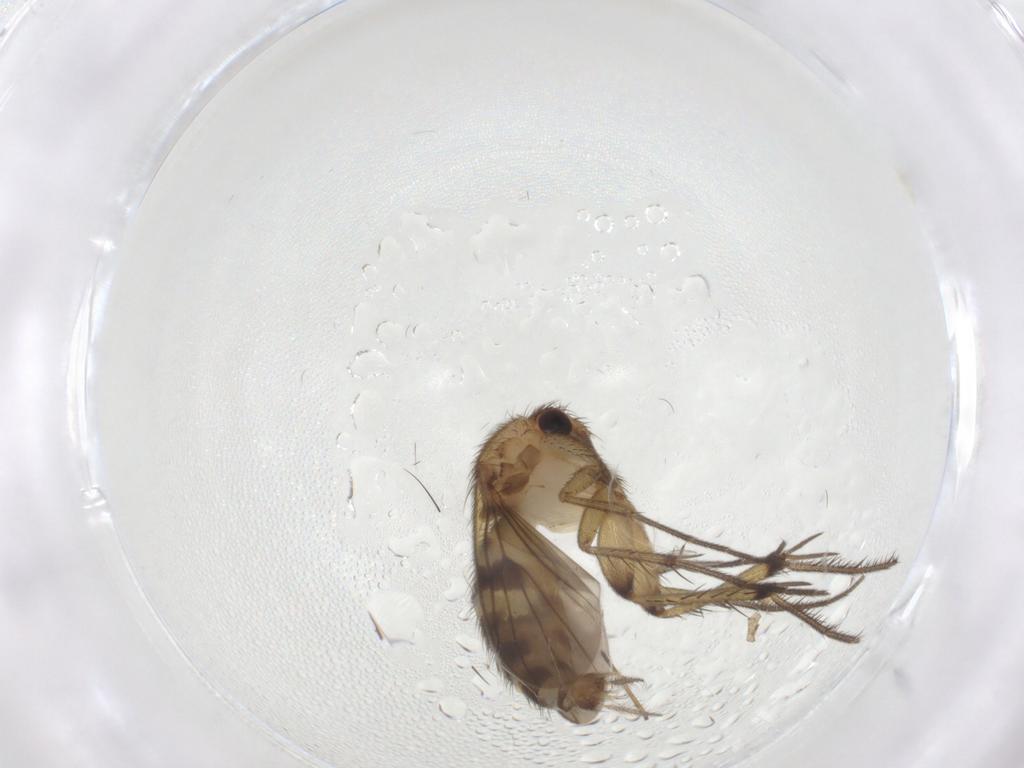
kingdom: Animalia
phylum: Arthropoda
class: Insecta
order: Diptera
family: Mycetophilidae
